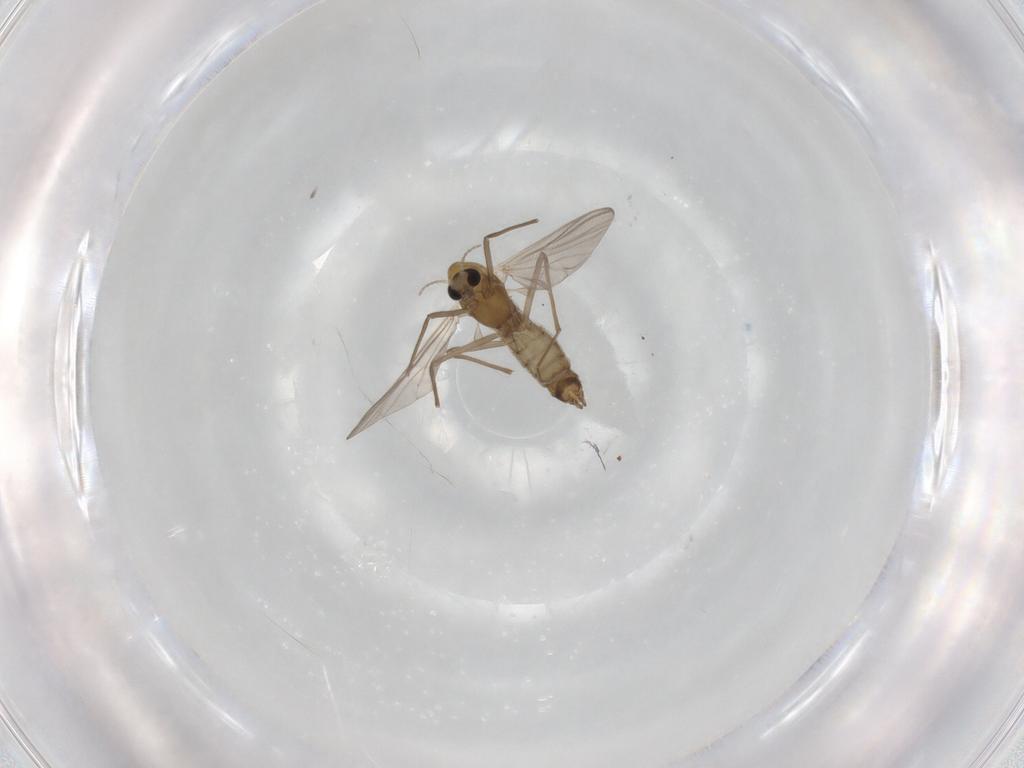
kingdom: Animalia
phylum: Arthropoda
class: Insecta
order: Diptera
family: Chironomidae
